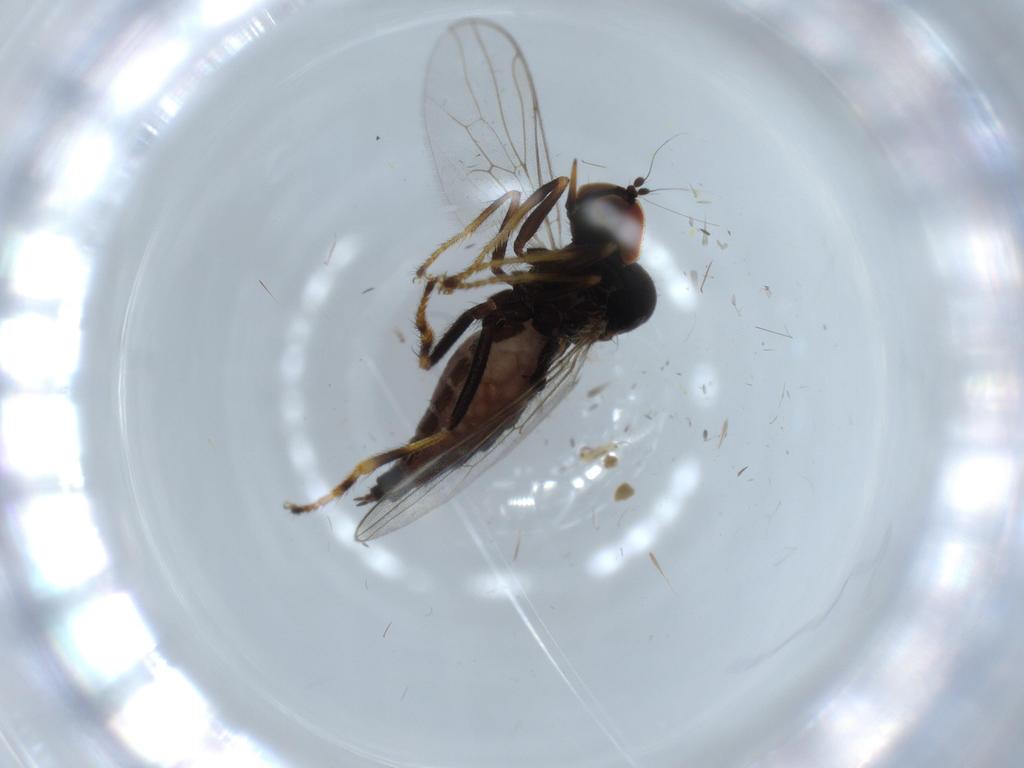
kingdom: Animalia
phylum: Arthropoda
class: Insecta
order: Diptera
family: Hybotidae
